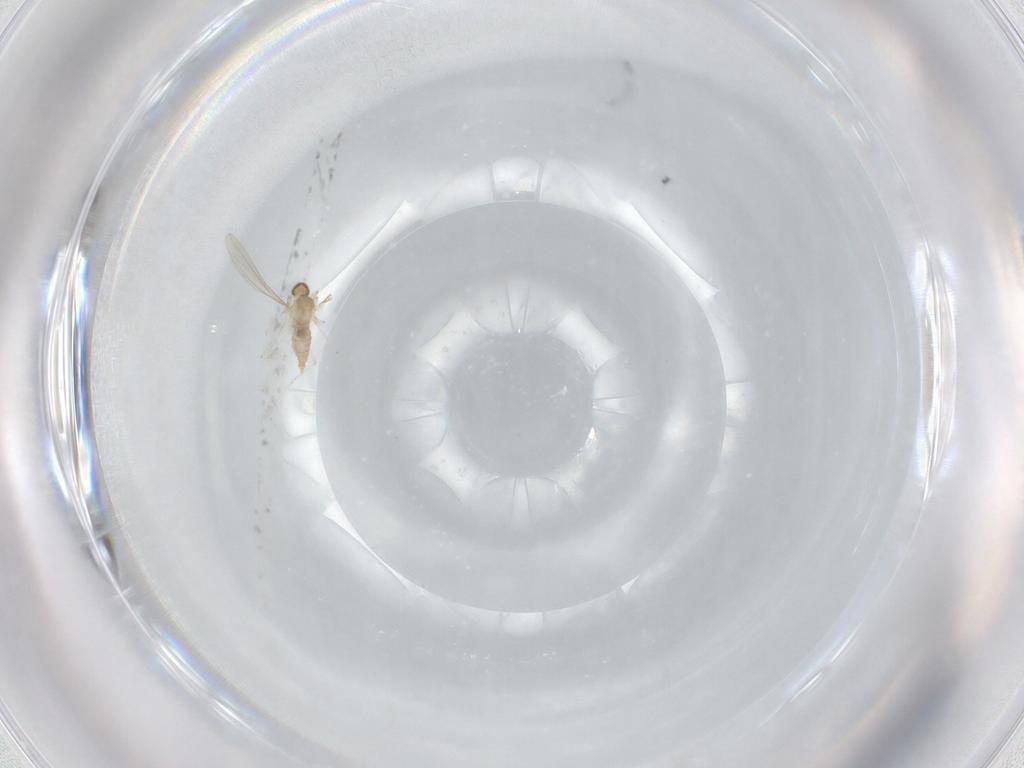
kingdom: Animalia
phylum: Arthropoda
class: Insecta
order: Diptera
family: Cecidomyiidae
